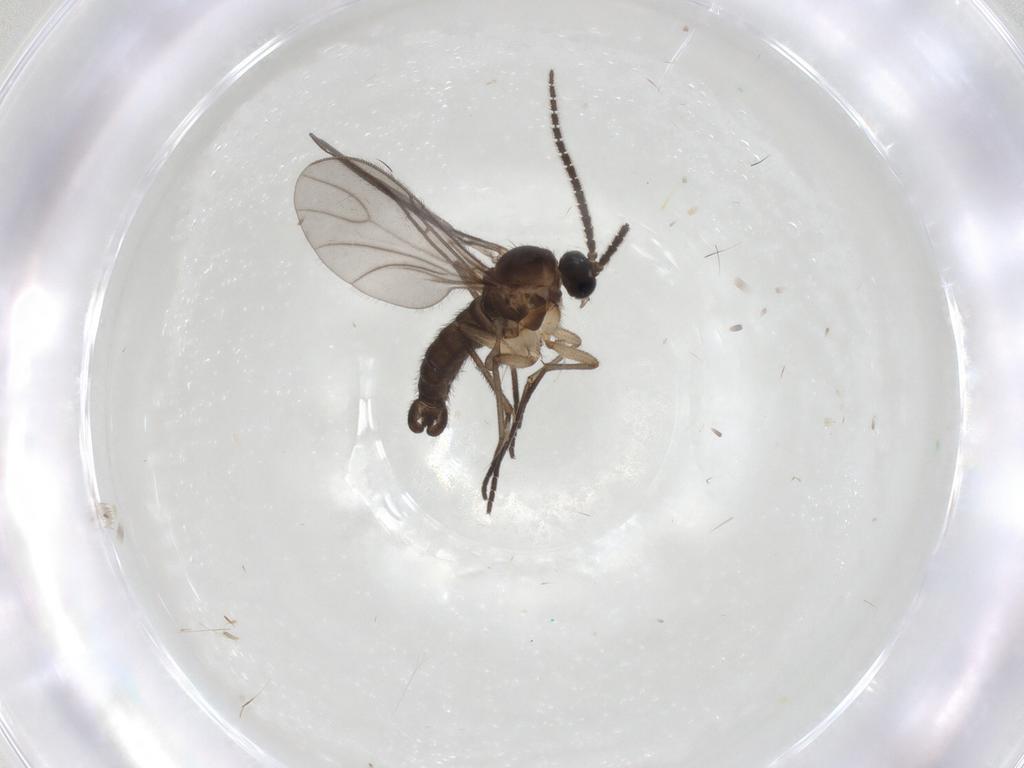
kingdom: Animalia
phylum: Arthropoda
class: Insecta
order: Diptera
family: Sciaridae
